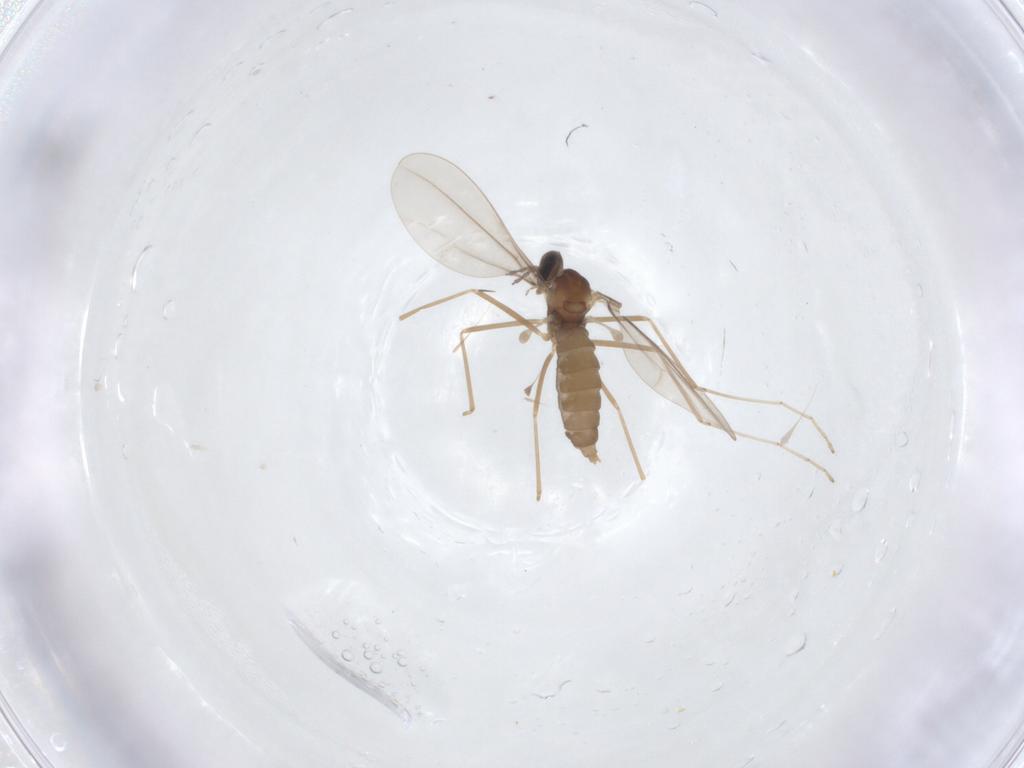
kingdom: Animalia
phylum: Arthropoda
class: Insecta
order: Diptera
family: Cecidomyiidae
